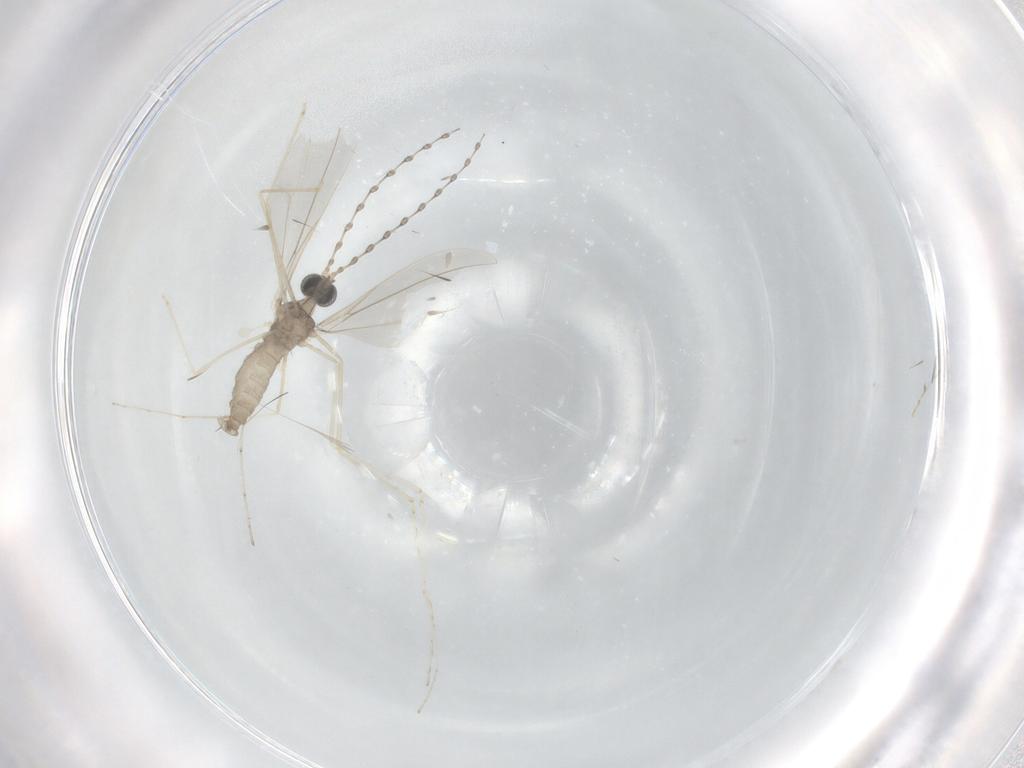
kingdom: Animalia
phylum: Arthropoda
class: Insecta
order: Diptera
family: Cecidomyiidae
